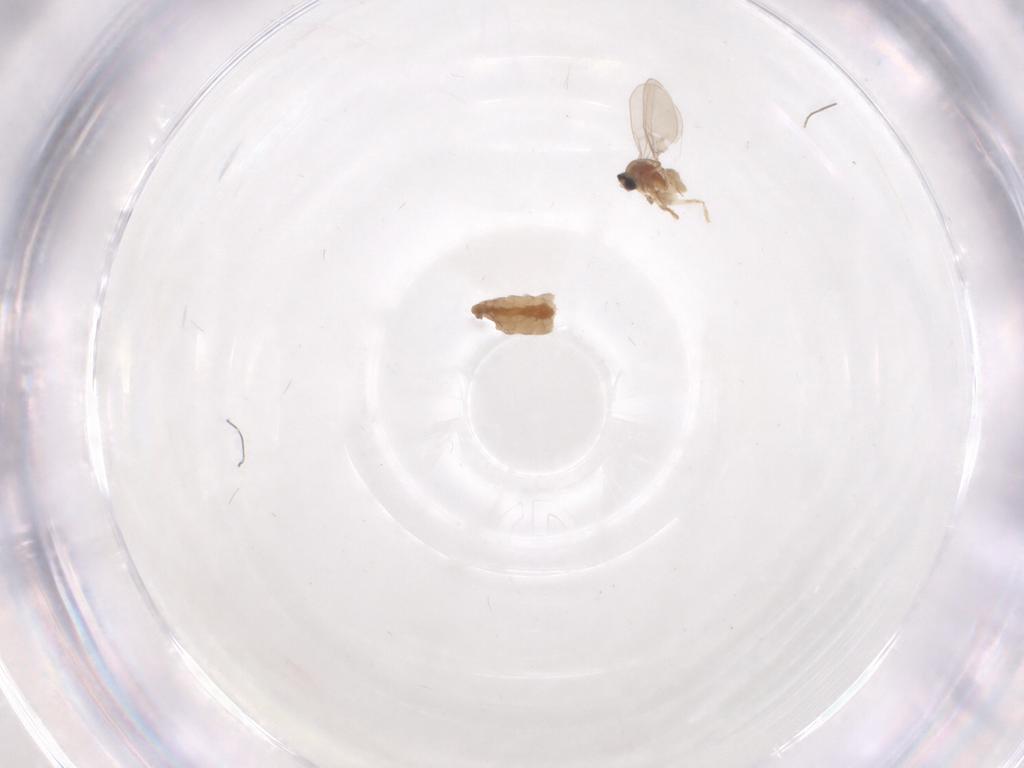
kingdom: Animalia
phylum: Arthropoda
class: Insecta
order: Diptera
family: Cecidomyiidae
